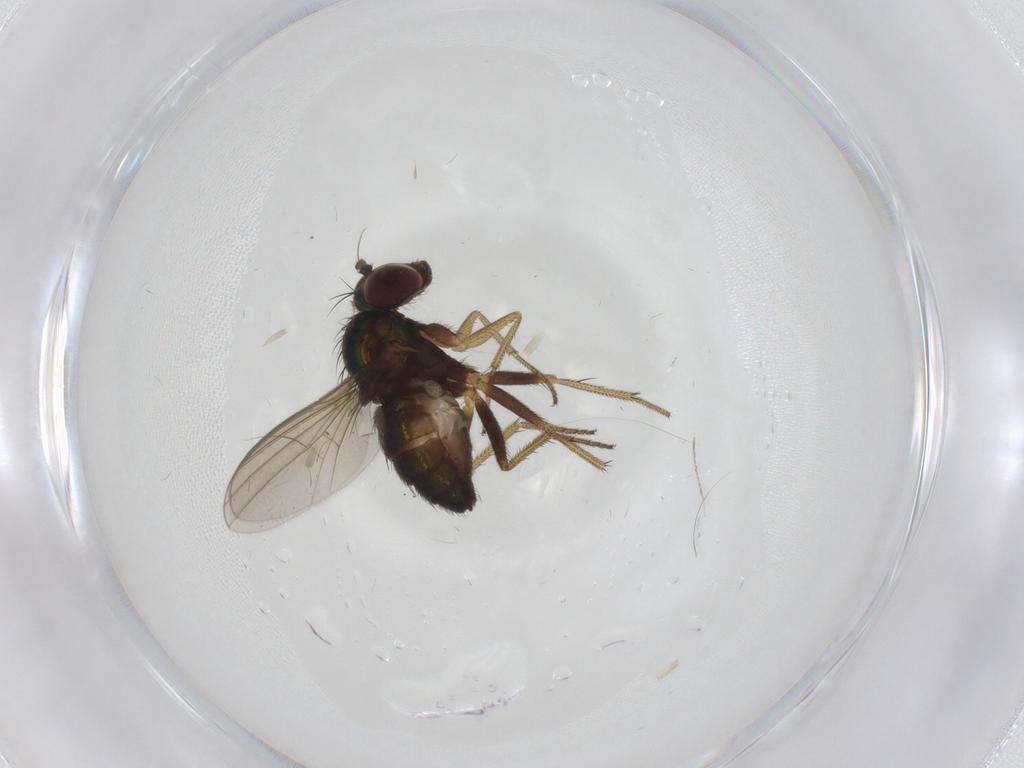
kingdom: Animalia
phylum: Arthropoda
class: Insecta
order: Diptera
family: Dolichopodidae
